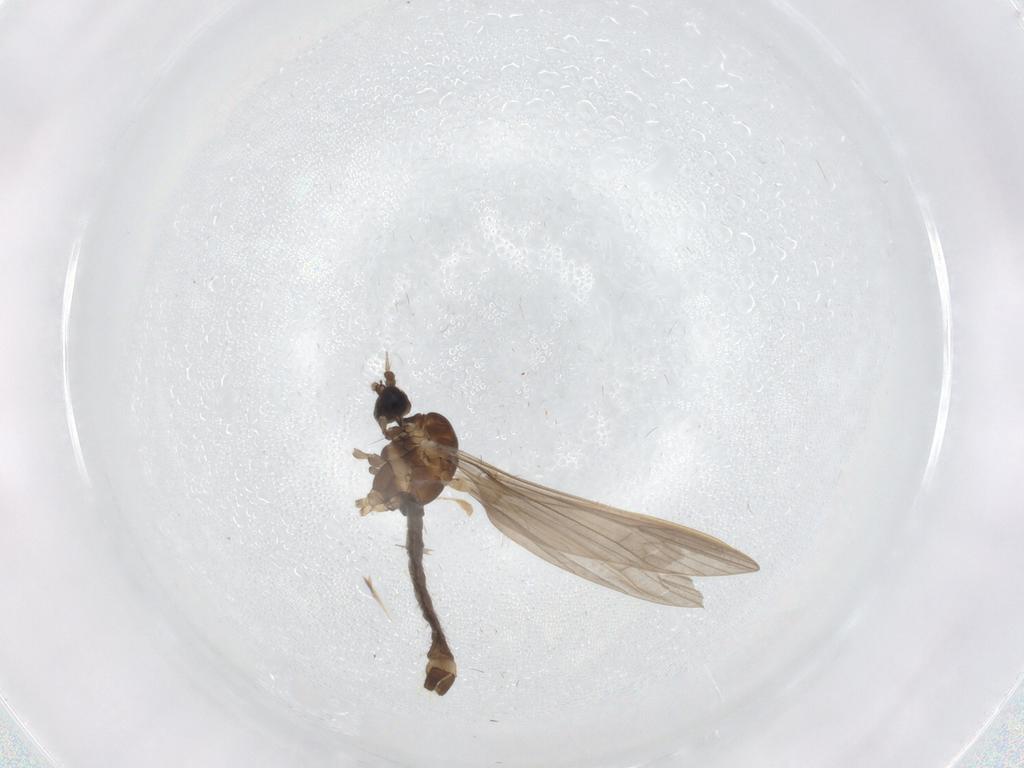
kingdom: Animalia
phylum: Arthropoda
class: Insecta
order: Diptera
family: Limoniidae
